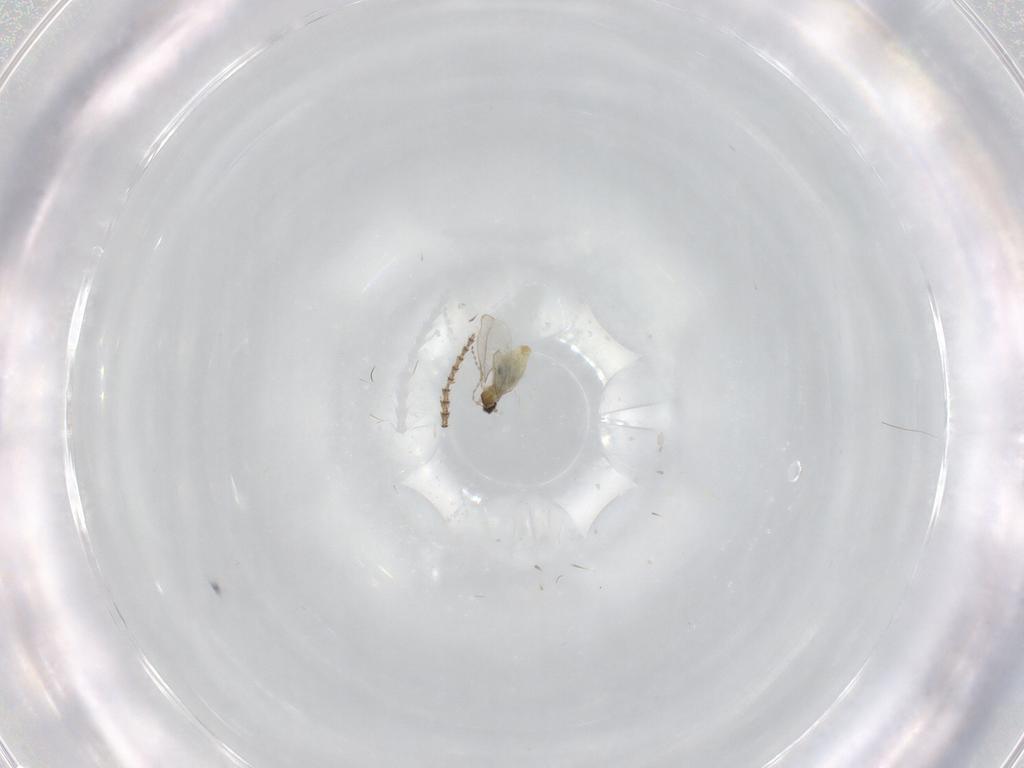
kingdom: Animalia
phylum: Arthropoda
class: Insecta
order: Diptera
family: Cecidomyiidae
